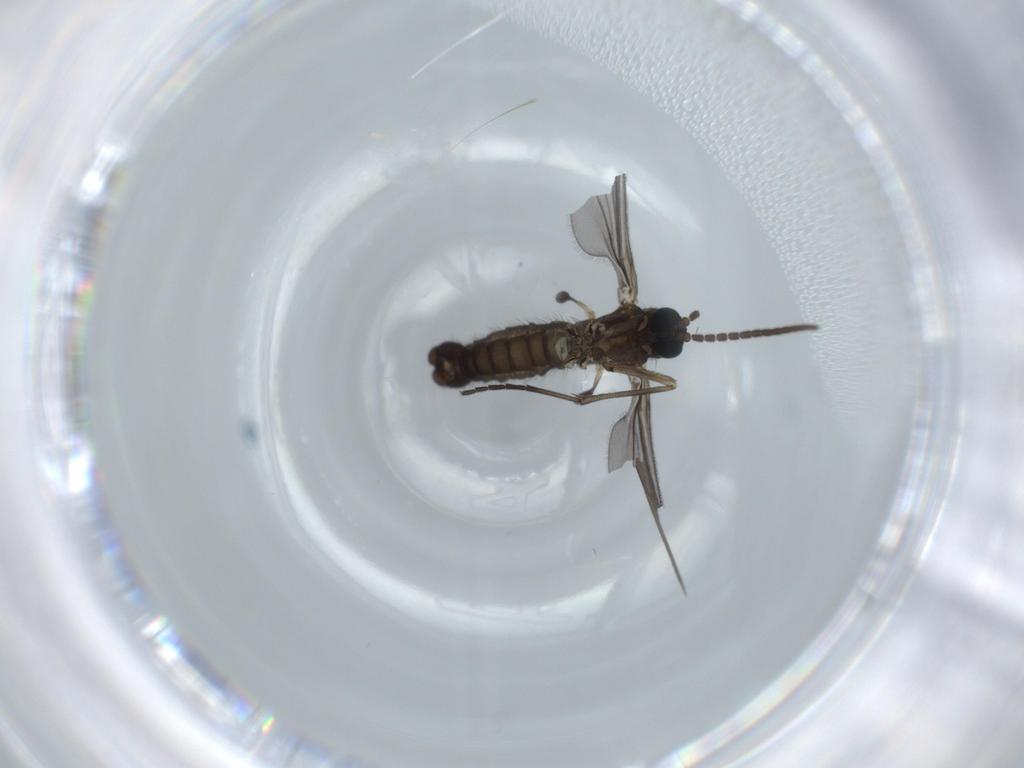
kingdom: Animalia
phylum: Arthropoda
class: Insecta
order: Diptera
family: Sciaridae
